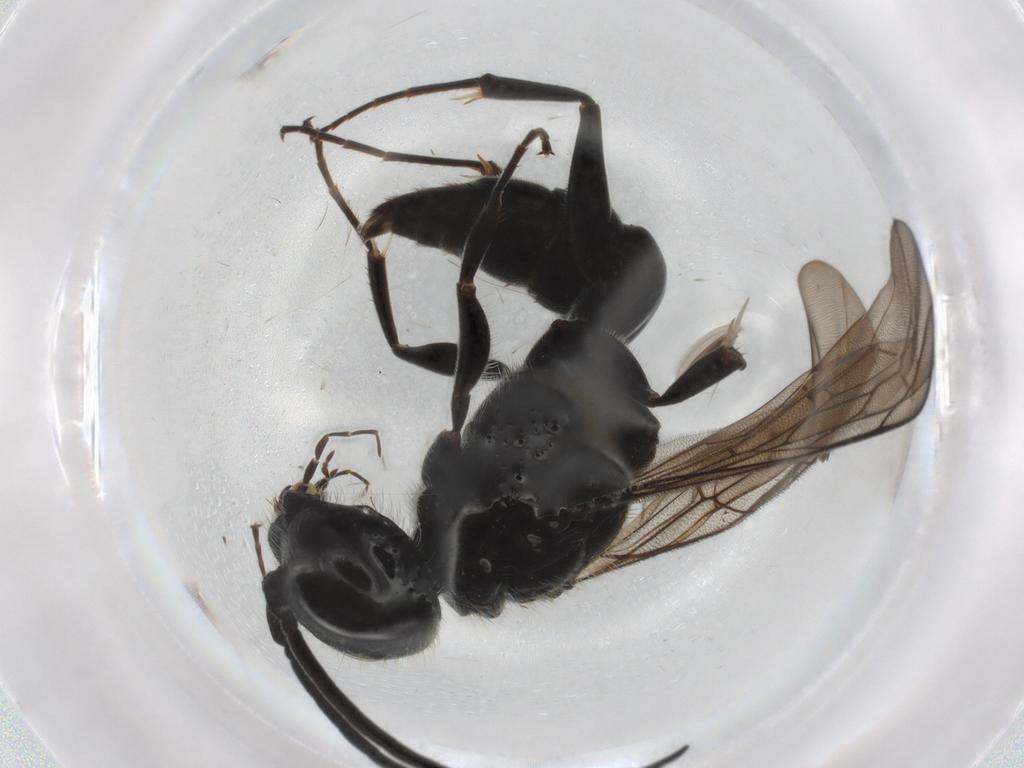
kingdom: Animalia
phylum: Arthropoda
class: Insecta
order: Hymenoptera
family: Ampulicidae
